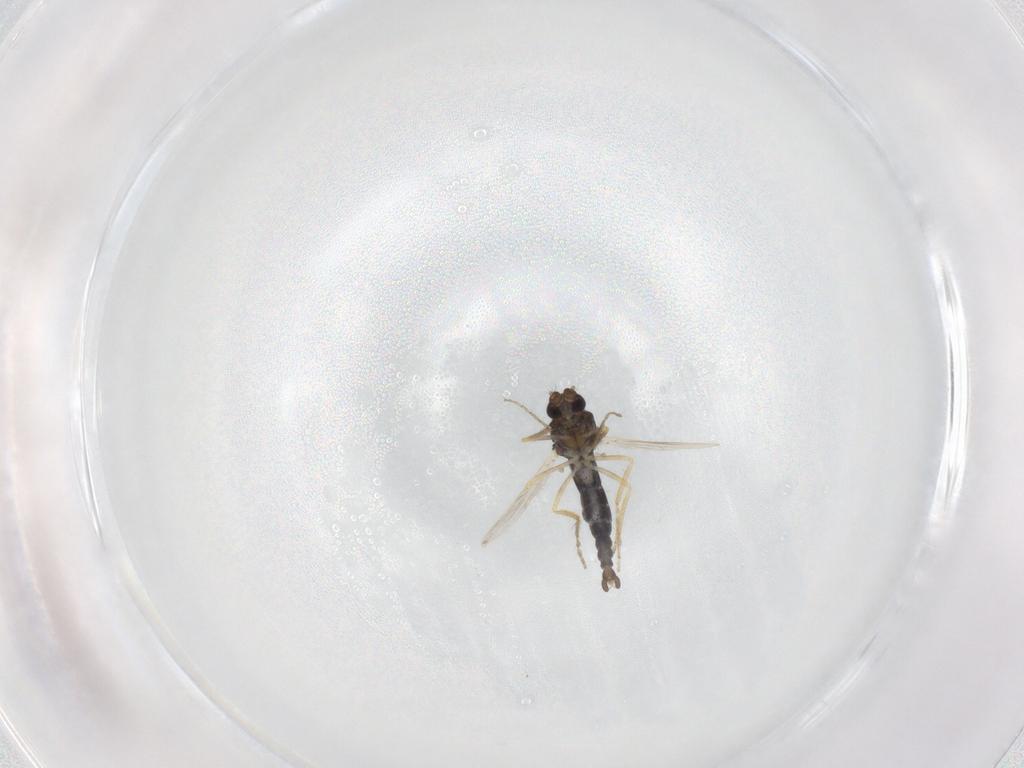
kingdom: Animalia
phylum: Arthropoda
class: Insecta
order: Diptera
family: Ceratopogonidae
